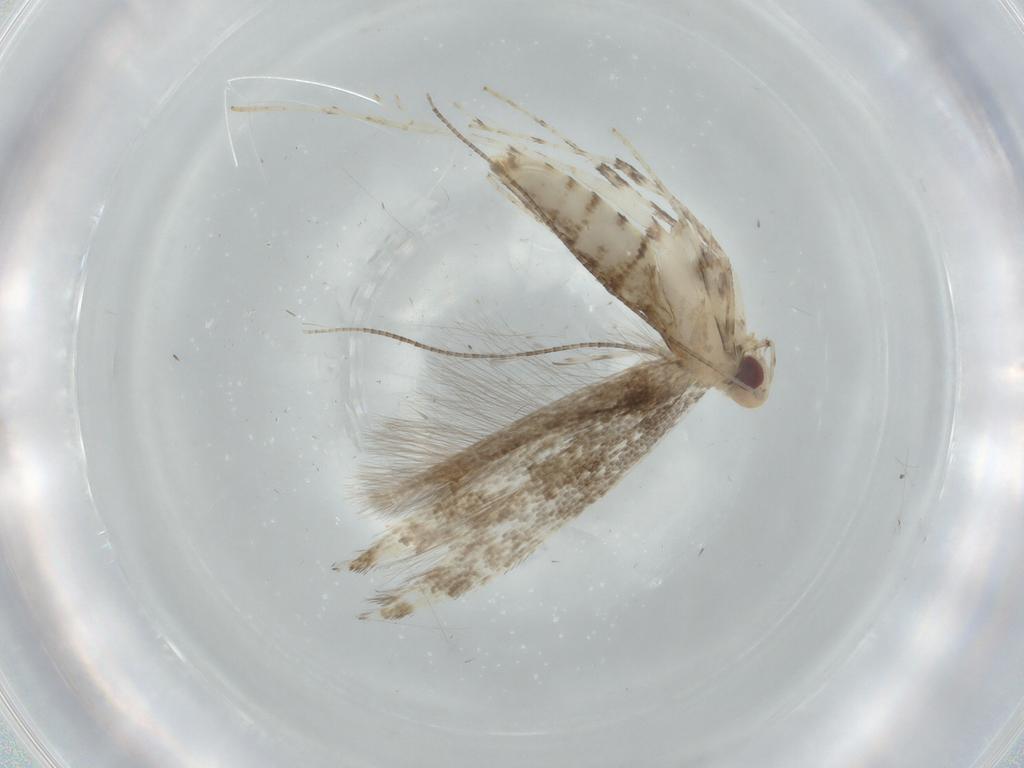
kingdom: Animalia
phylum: Arthropoda
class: Insecta
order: Lepidoptera
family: Gracillariidae
